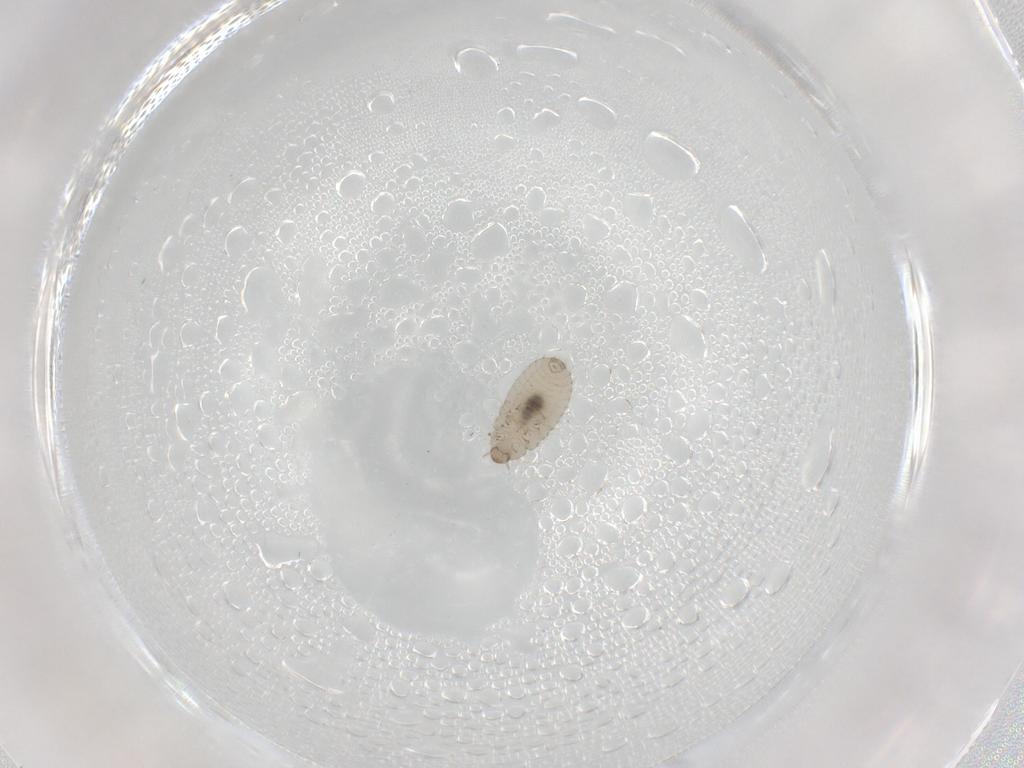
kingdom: Animalia
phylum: Arthropoda
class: Insecta
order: Coleoptera
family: Corylophidae
